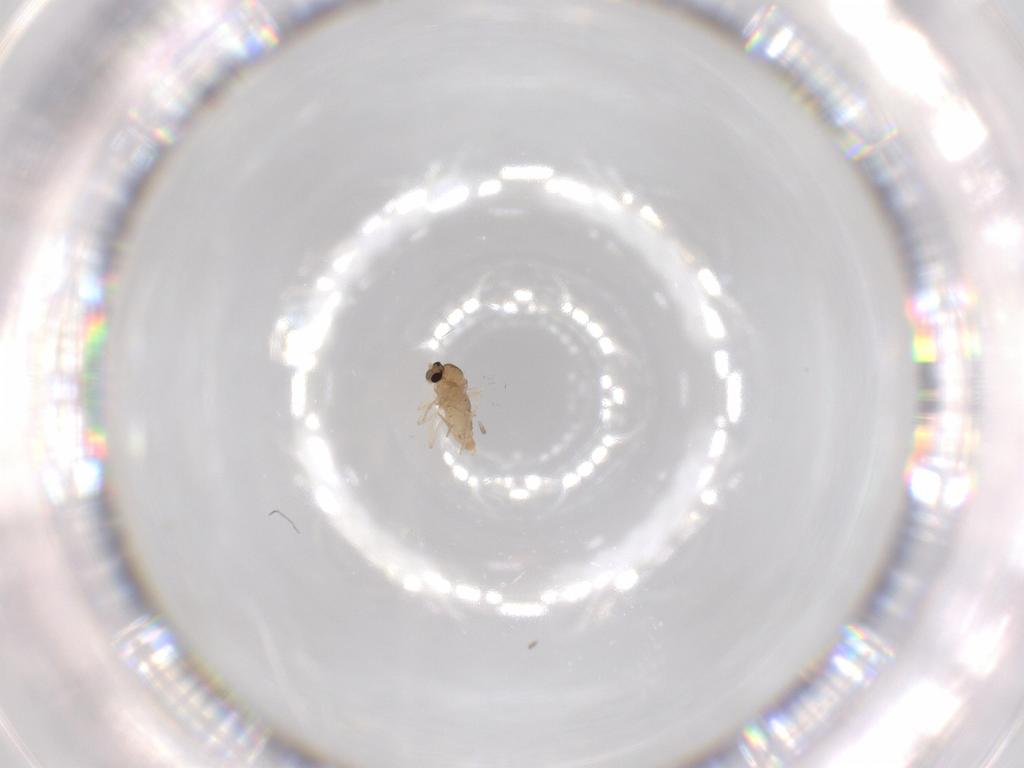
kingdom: Animalia
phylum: Arthropoda
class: Insecta
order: Diptera
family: Cecidomyiidae
